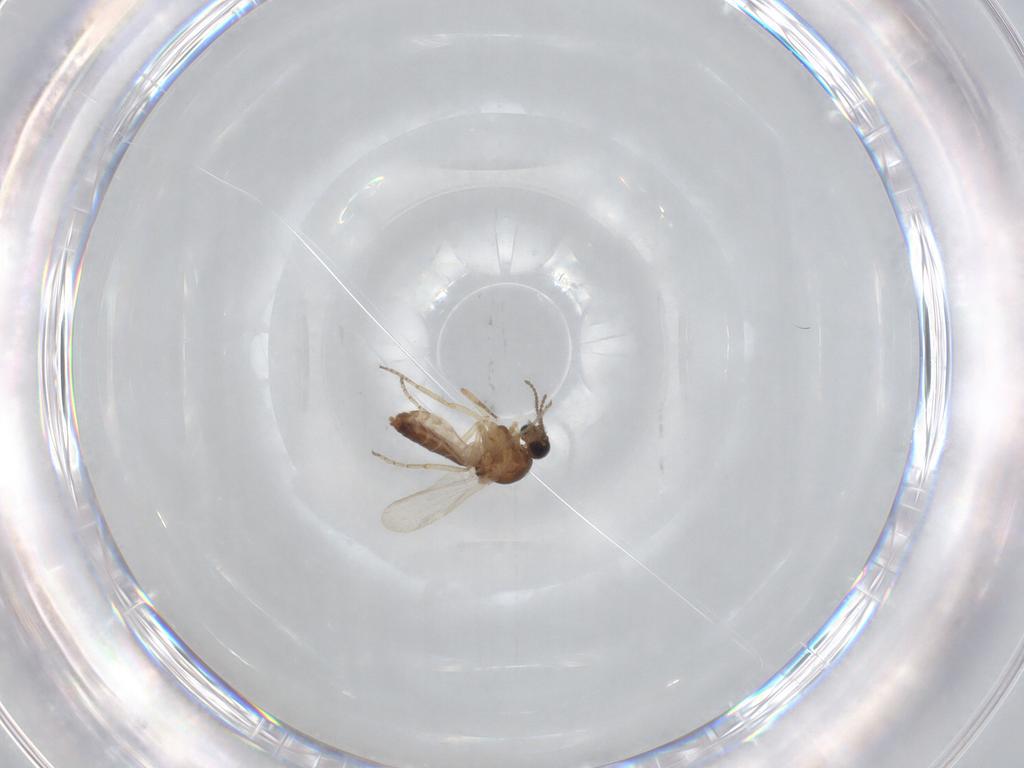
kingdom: Animalia
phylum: Arthropoda
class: Insecta
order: Diptera
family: Ceratopogonidae
